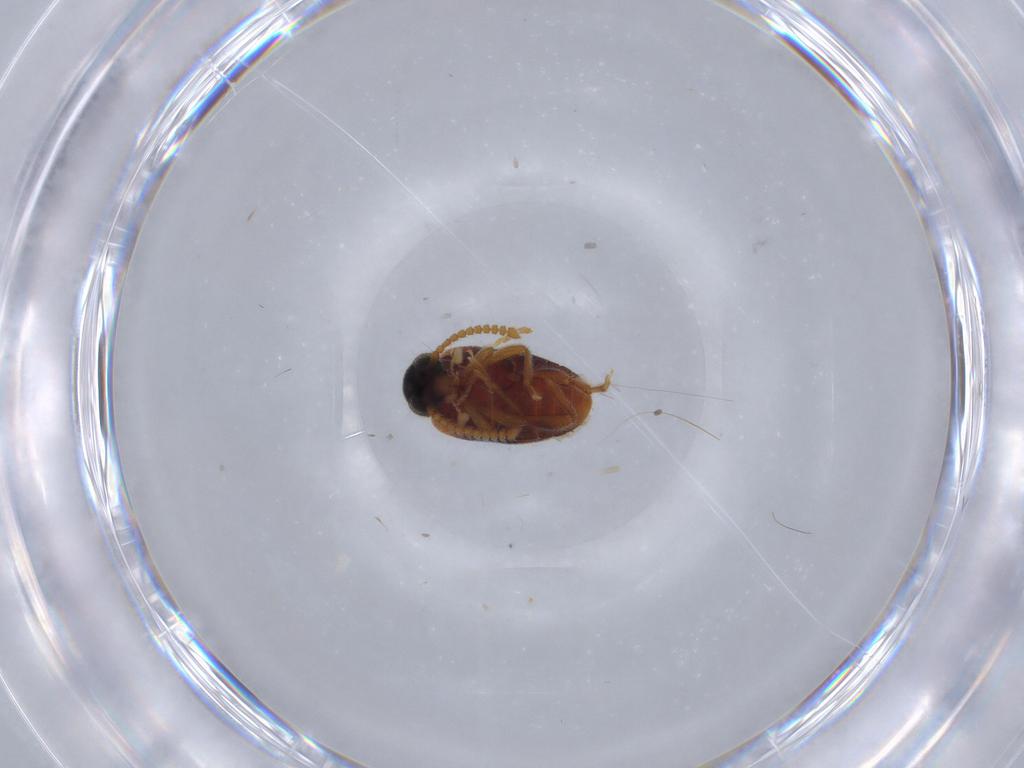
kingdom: Animalia
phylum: Arthropoda
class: Insecta
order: Coleoptera
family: Aderidae
